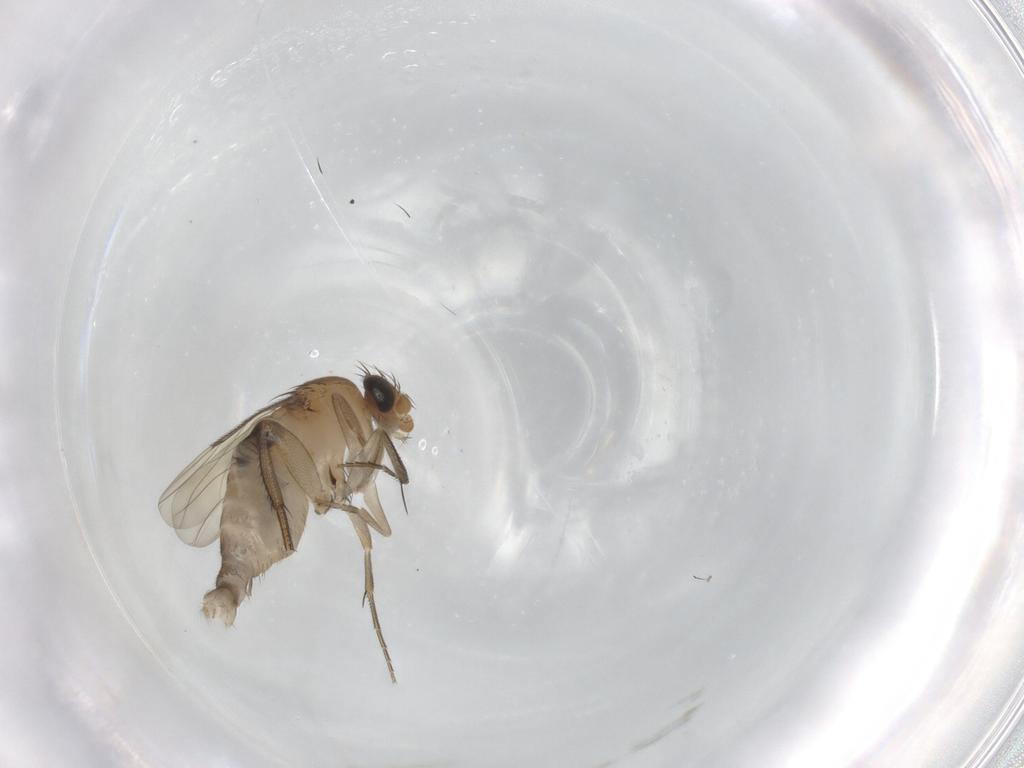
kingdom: Animalia
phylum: Arthropoda
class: Insecta
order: Diptera
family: Phoridae
